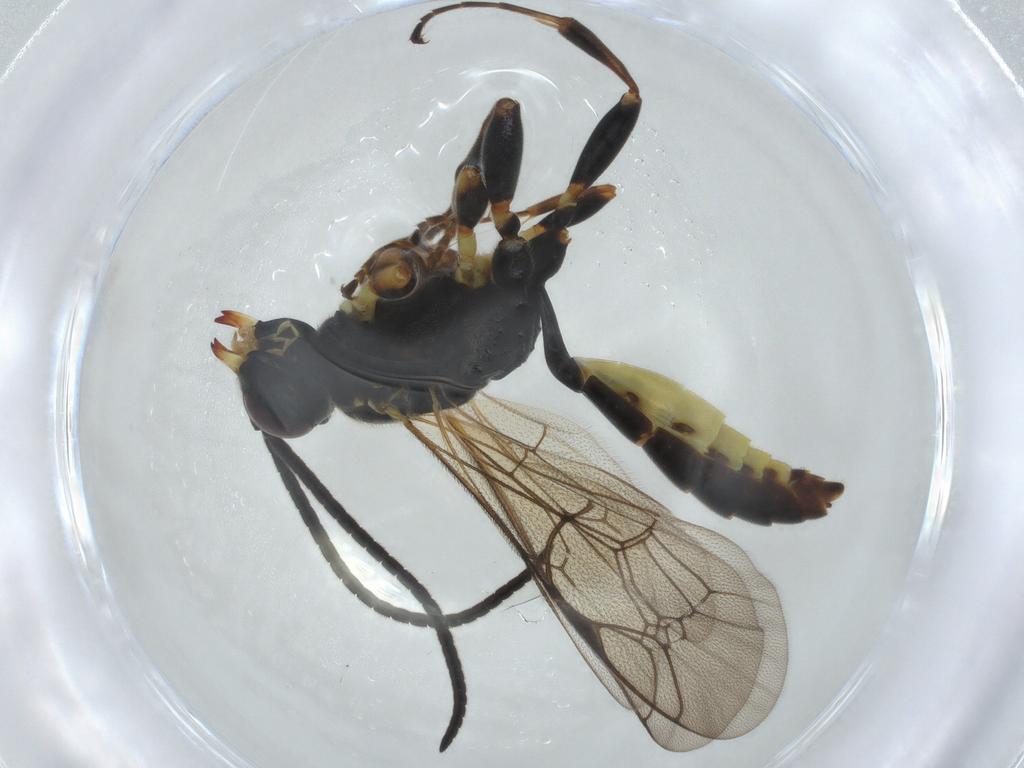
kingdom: Animalia
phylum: Arthropoda
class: Insecta
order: Hymenoptera
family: Ichneumonidae
